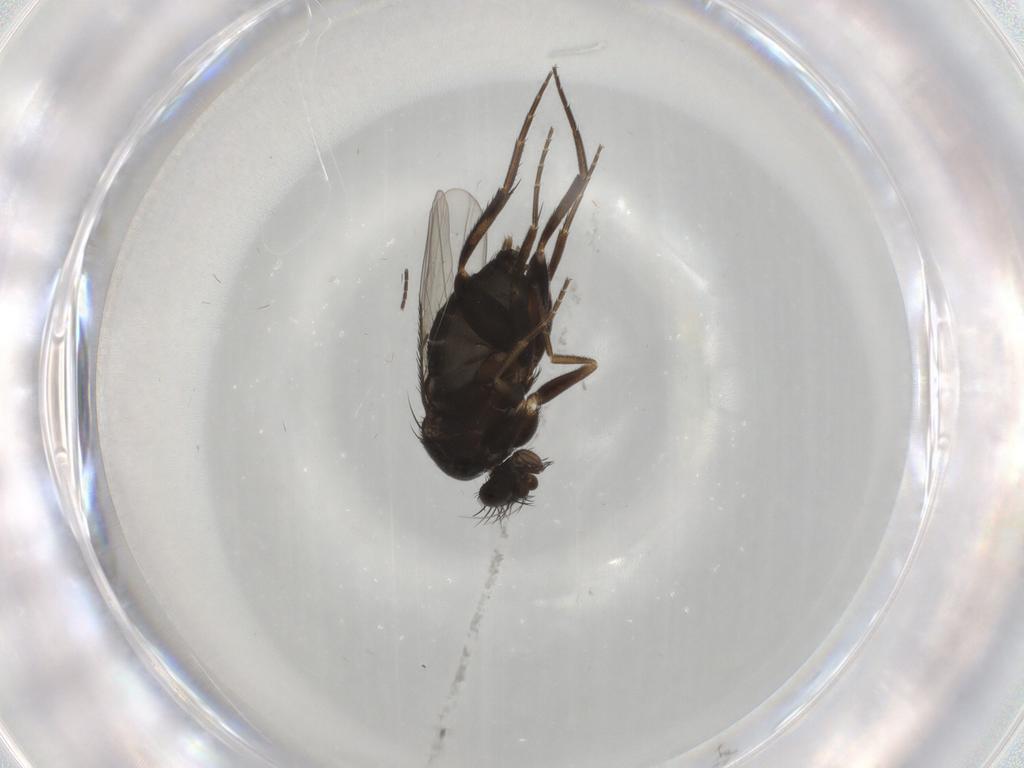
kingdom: Animalia
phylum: Arthropoda
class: Insecta
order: Diptera
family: Phoridae
